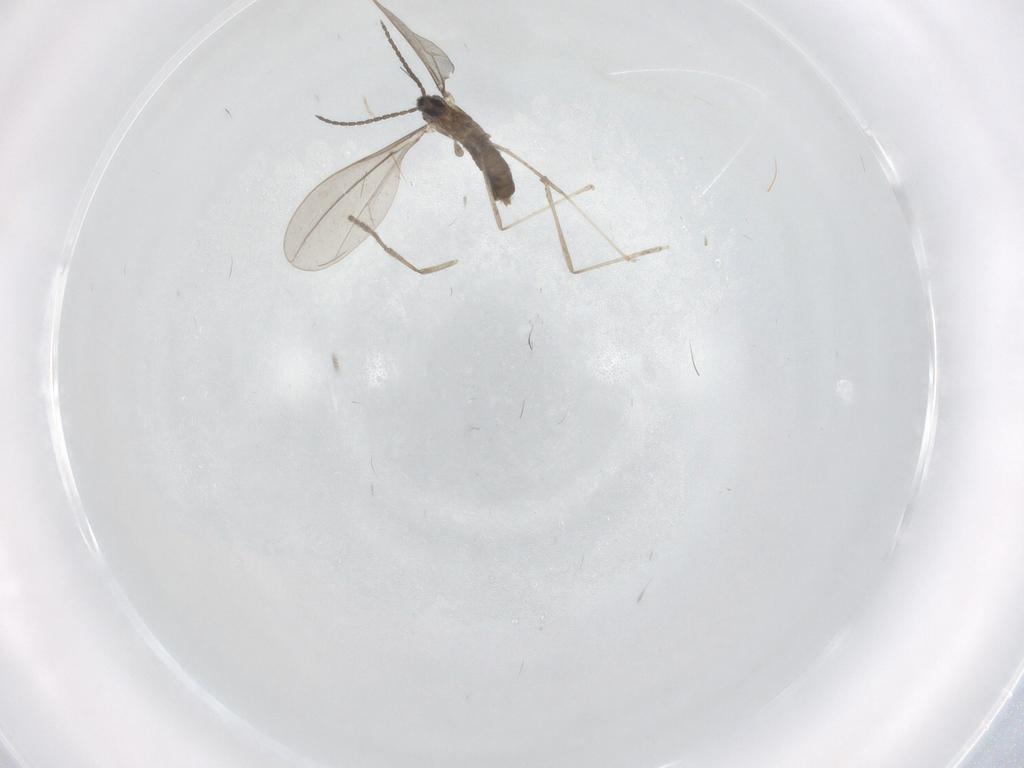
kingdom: Animalia
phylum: Arthropoda
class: Insecta
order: Diptera
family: Cecidomyiidae
